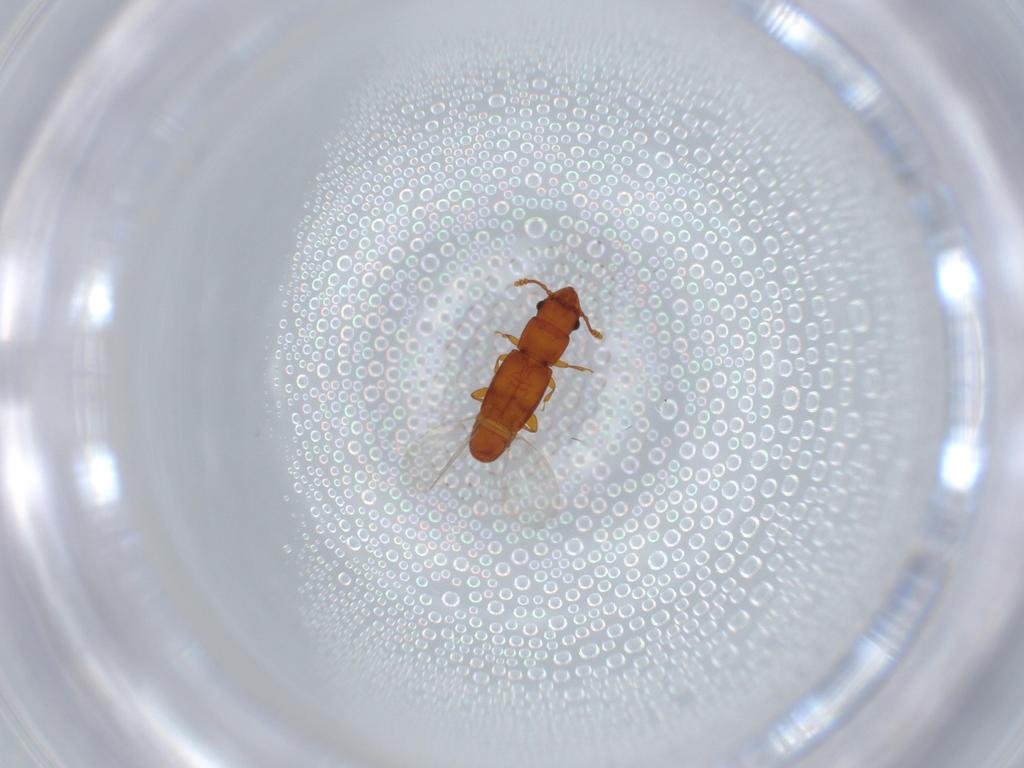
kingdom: Animalia
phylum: Arthropoda
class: Insecta
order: Coleoptera
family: Smicripidae
